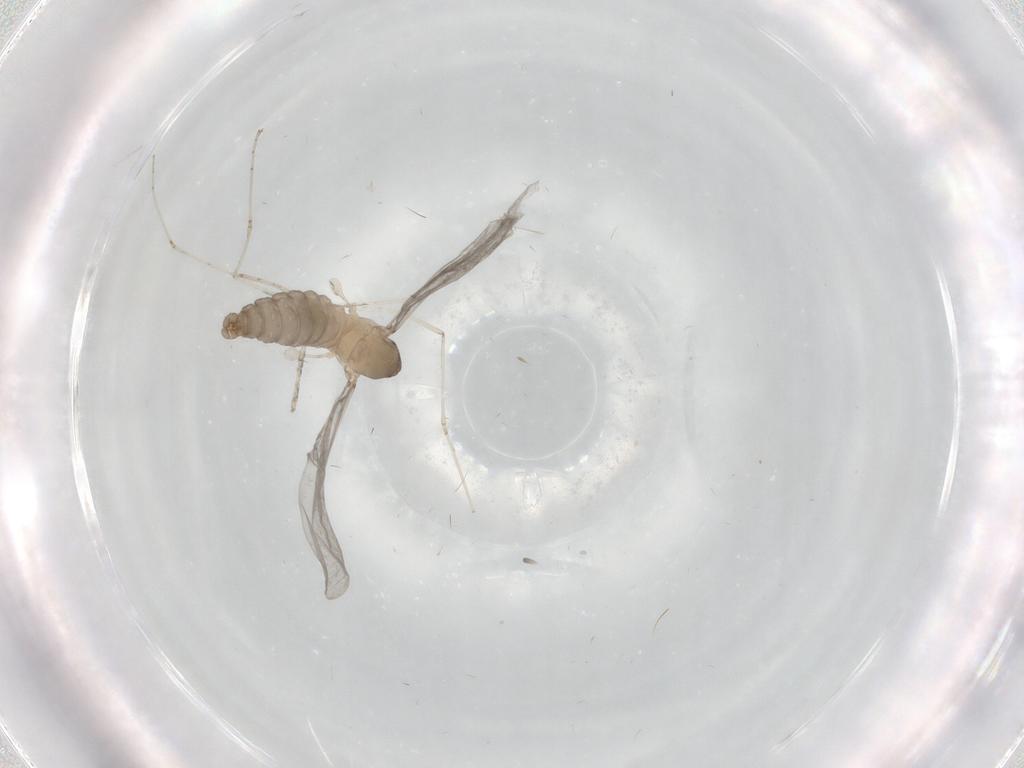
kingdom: Animalia
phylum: Arthropoda
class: Insecta
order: Diptera
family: Cecidomyiidae
